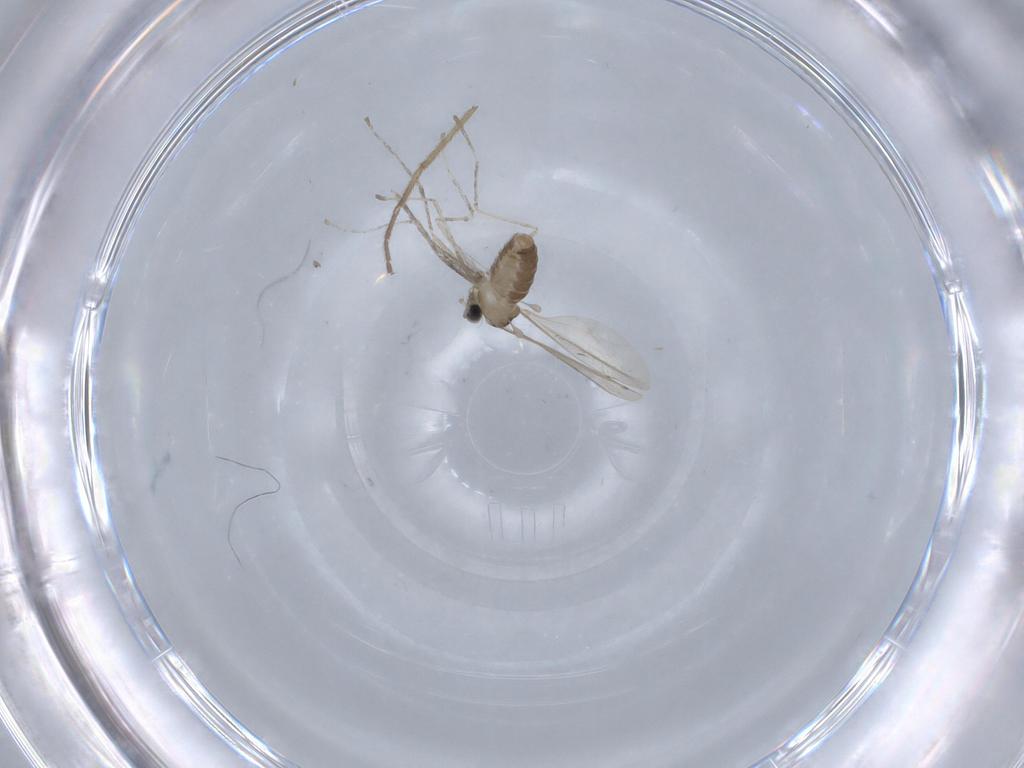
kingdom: Animalia
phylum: Arthropoda
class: Insecta
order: Diptera
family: Cecidomyiidae
